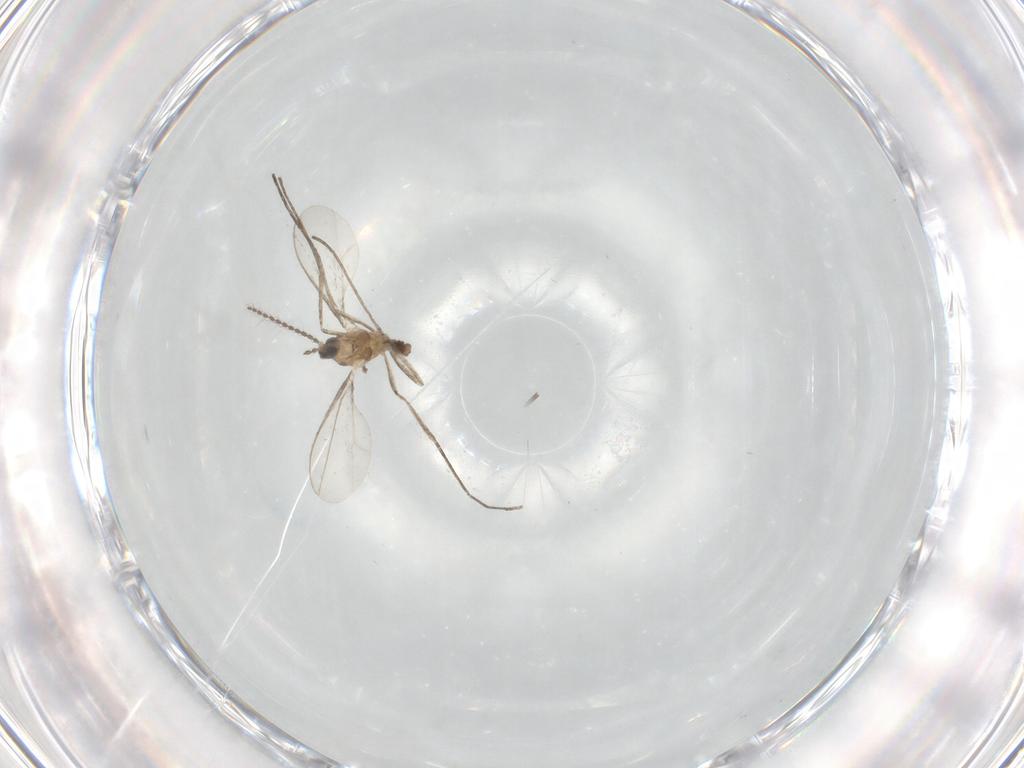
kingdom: Animalia
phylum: Arthropoda
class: Insecta
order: Diptera
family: Cecidomyiidae
